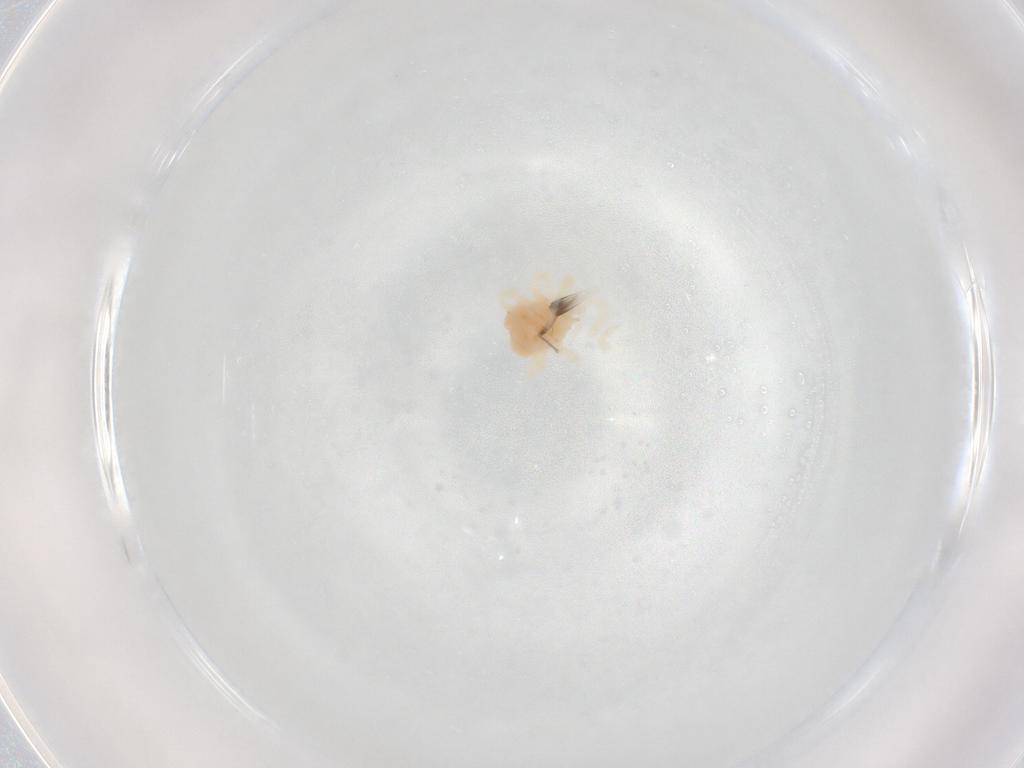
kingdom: Animalia
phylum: Arthropoda
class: Arachnida
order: Trombidiformes
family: Anystidae
